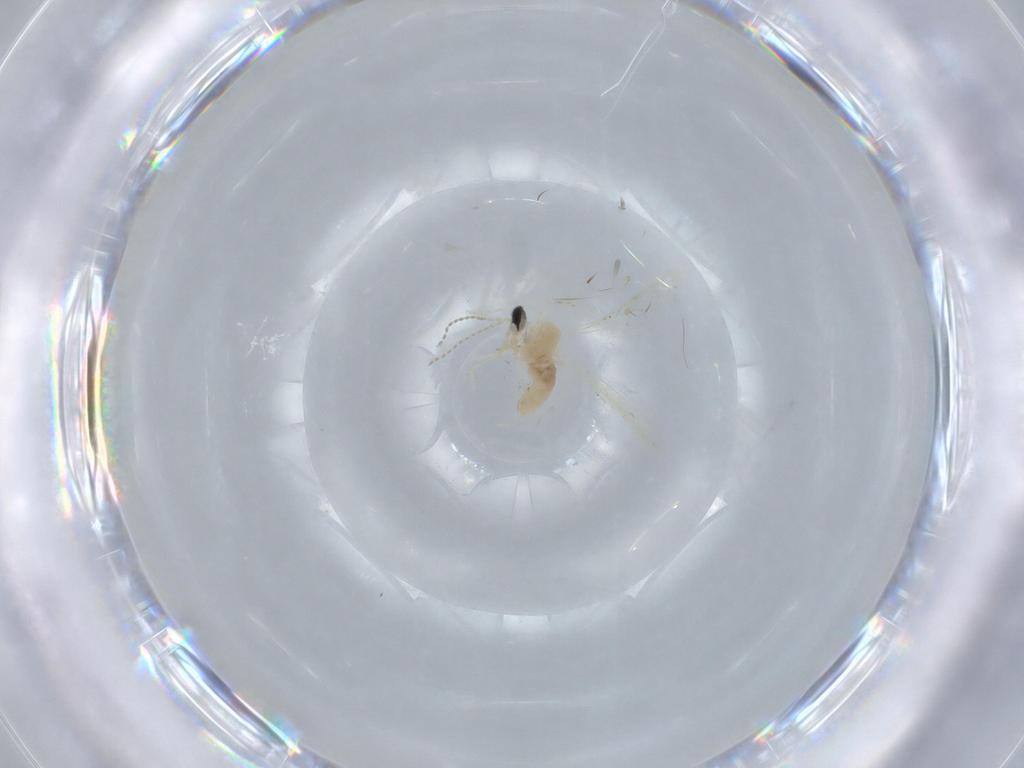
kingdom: Animalia
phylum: Arthropoda
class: Insecta
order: Diptera
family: Cecidomyiidae
